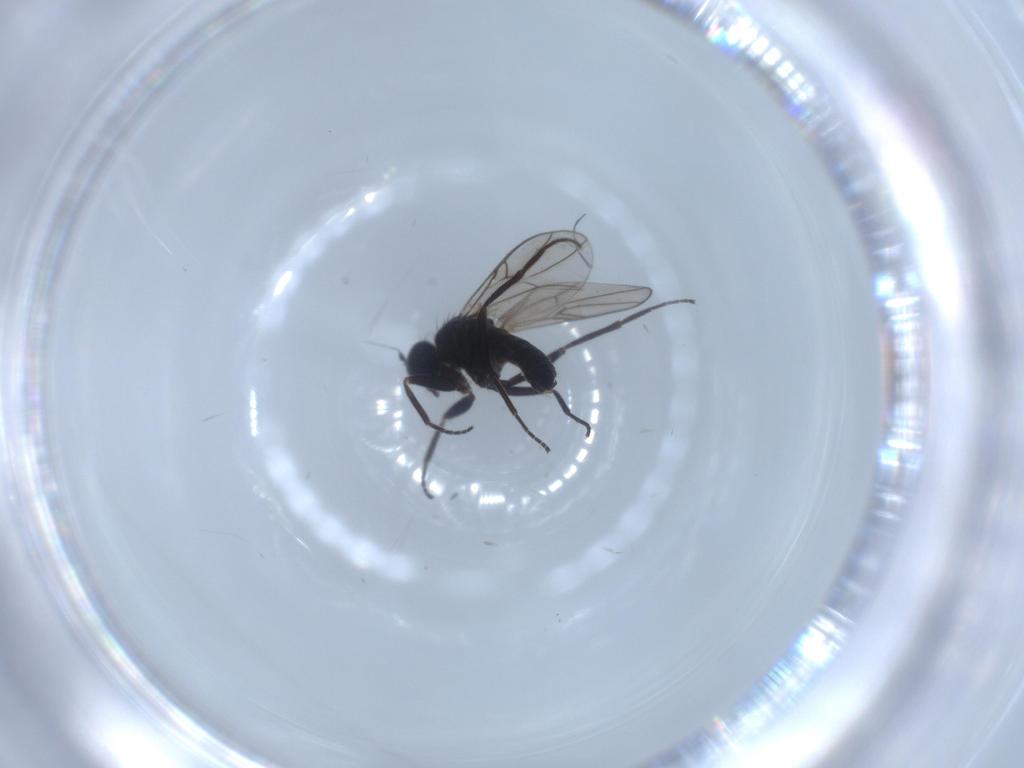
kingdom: Animalia
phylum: Arthropoda
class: Insecta
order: Diptera
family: Hybotidae
